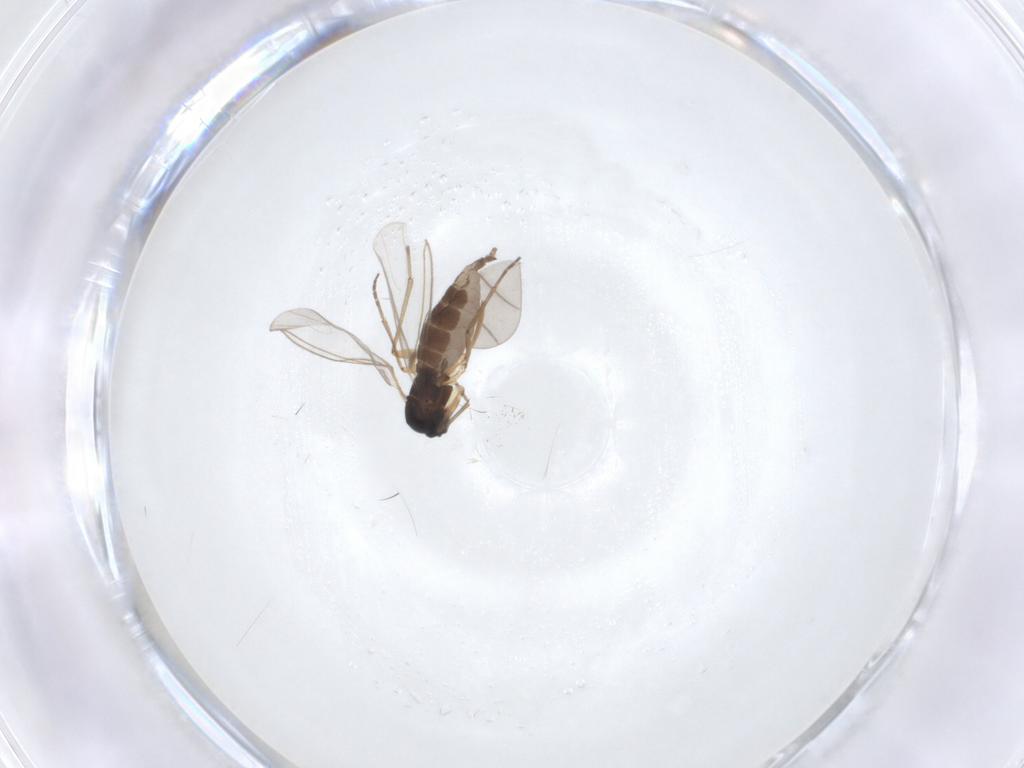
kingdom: Animalia
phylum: Arthropoda
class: Insecta
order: Diptera
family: Sciaridae
